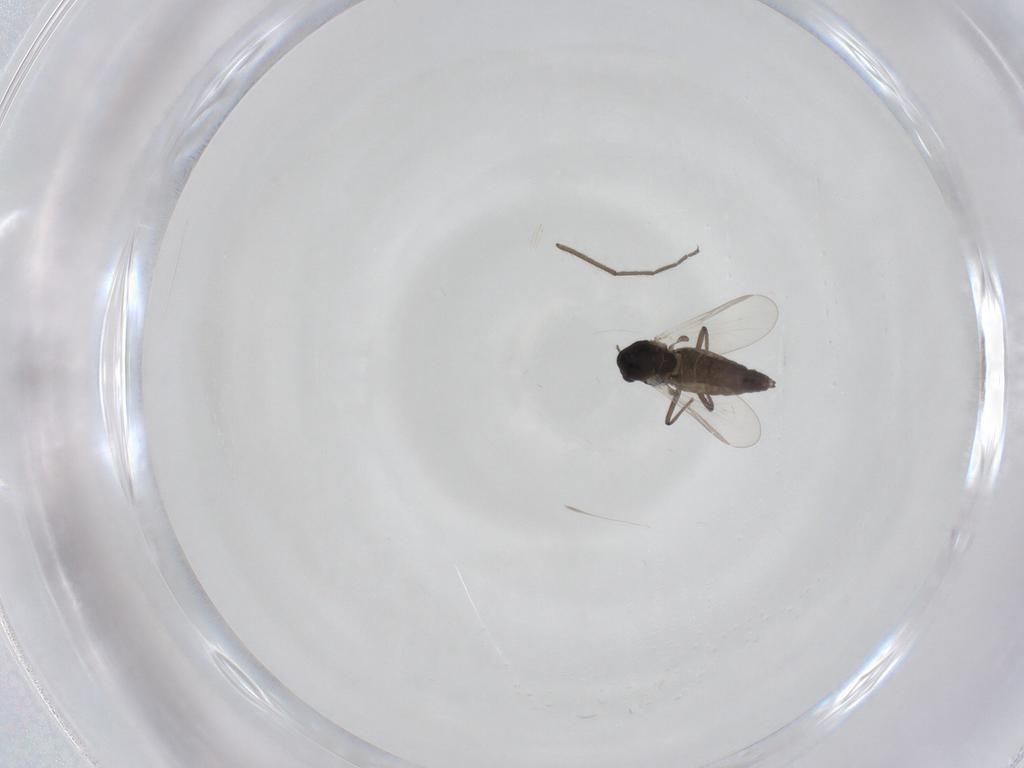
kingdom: Animalia
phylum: Arthropoda
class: Insecta
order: Diptera
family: Chironomidae
